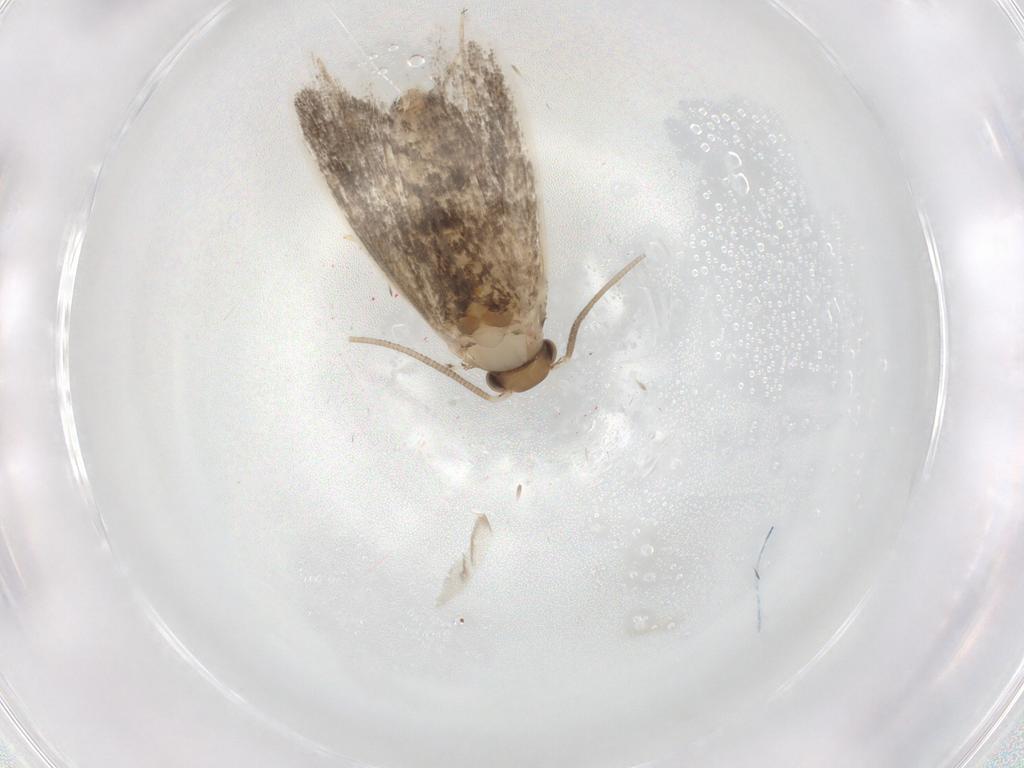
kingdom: Animalia
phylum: Arthropoda
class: Insecta
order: Lepidoptera
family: Dryadaulidae
